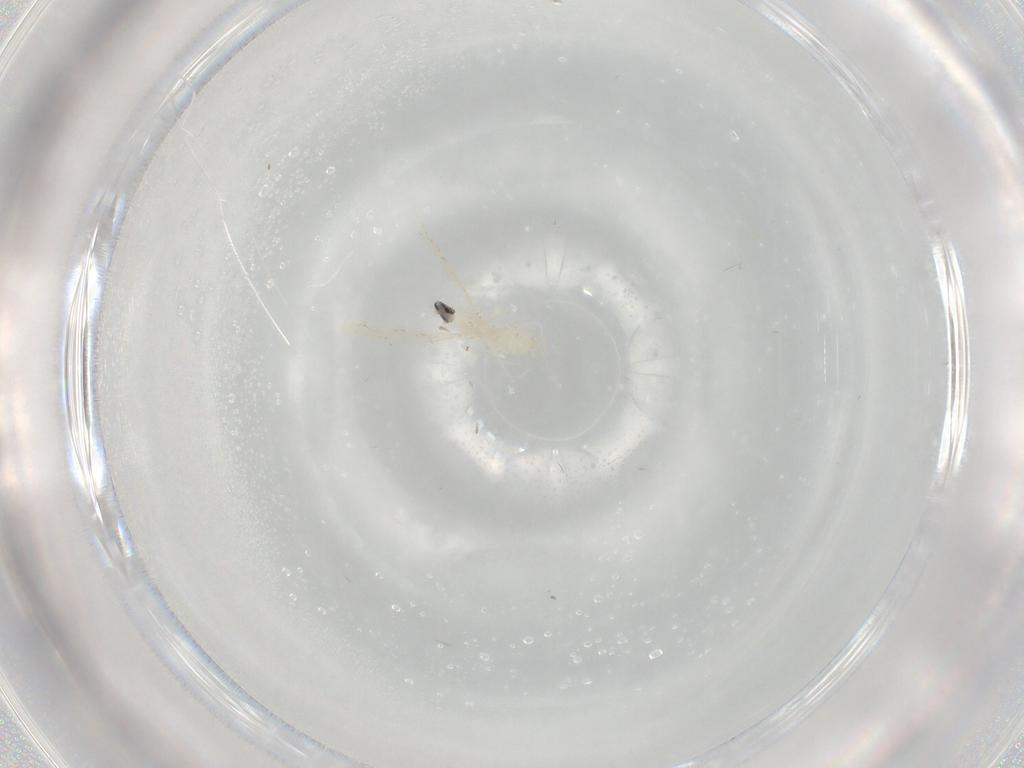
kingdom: Animalia
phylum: Arthropoda
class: Insecta
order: Diptera
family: Cecidomyiidae
